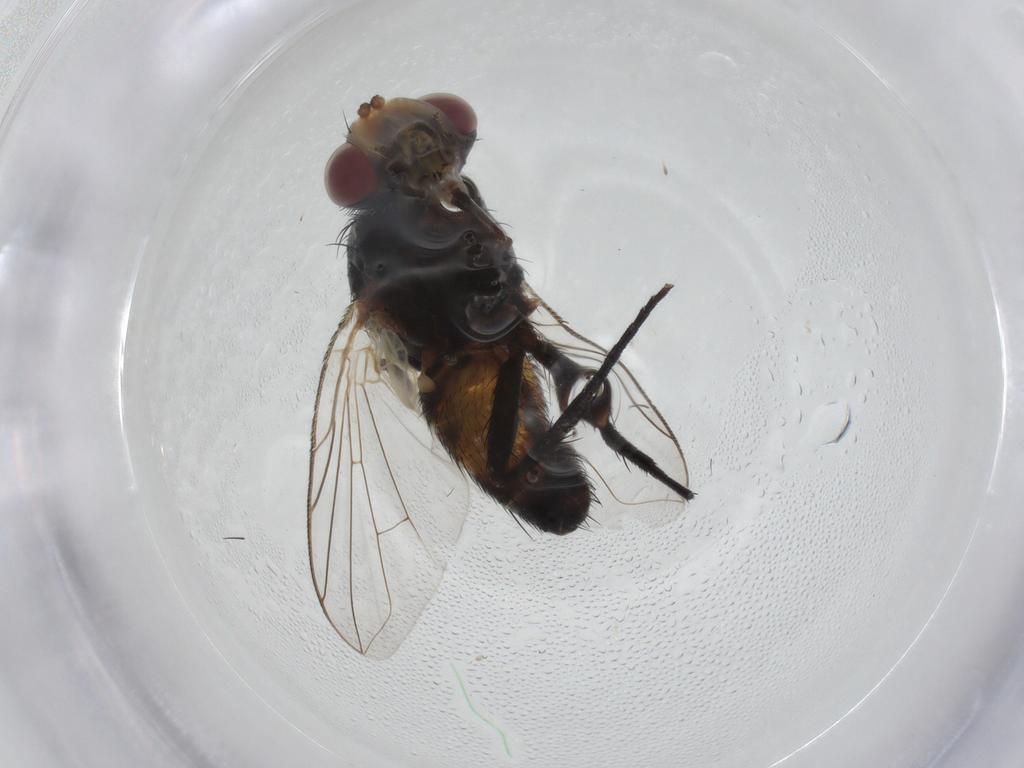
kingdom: Animalia
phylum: Arthropoda
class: Insecta
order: Diptera
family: Tachinidae
